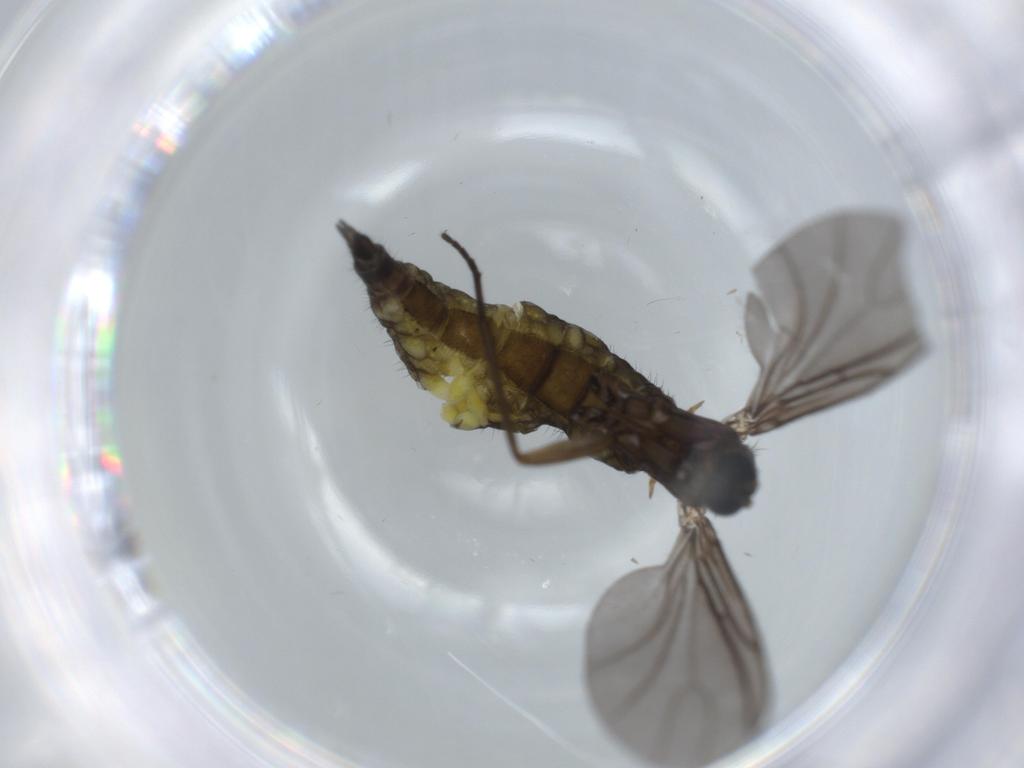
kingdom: Animalia
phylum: Arthropoda
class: Insecta
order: Diptera
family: Sciaridae
